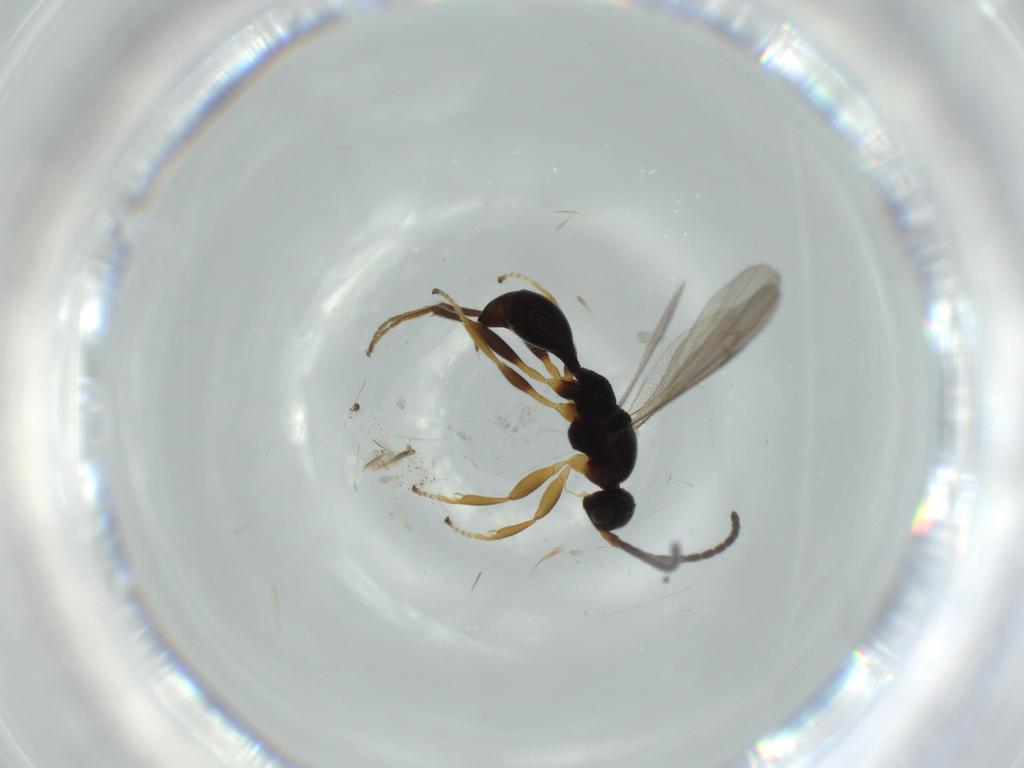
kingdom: Animalia
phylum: Arthropoda
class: Insecta
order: Hymenoptera
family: Proctotrupidae
